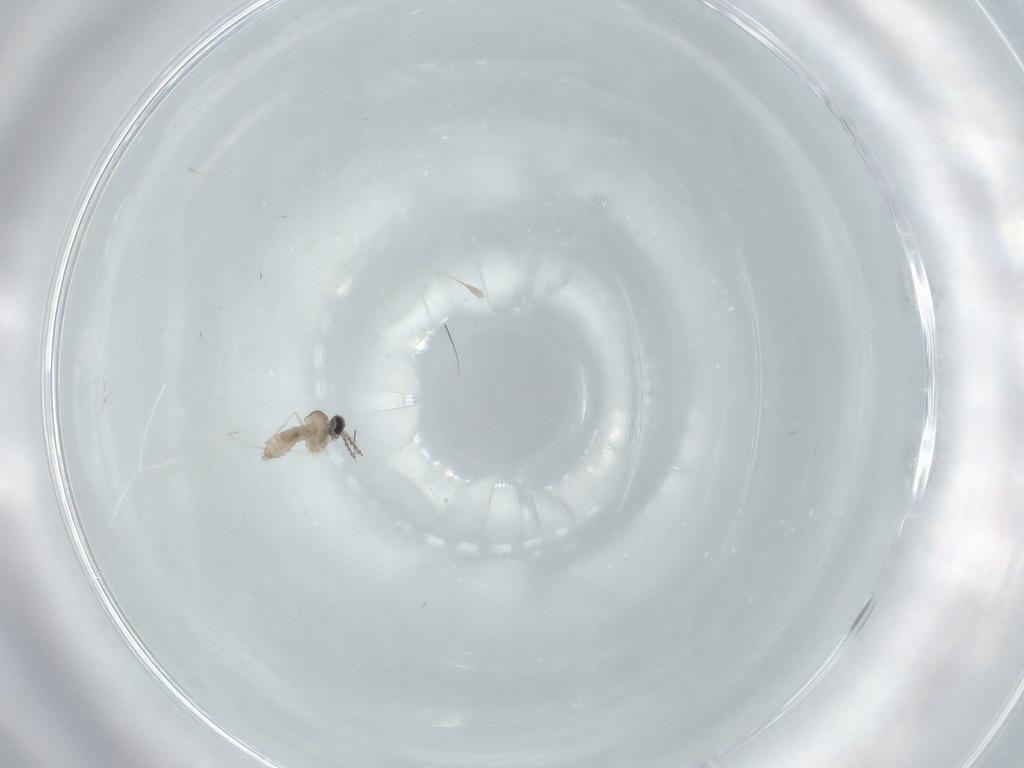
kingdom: Animalia
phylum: Arthropoda
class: Insecta
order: Diptera
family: Cecidomyiidae
